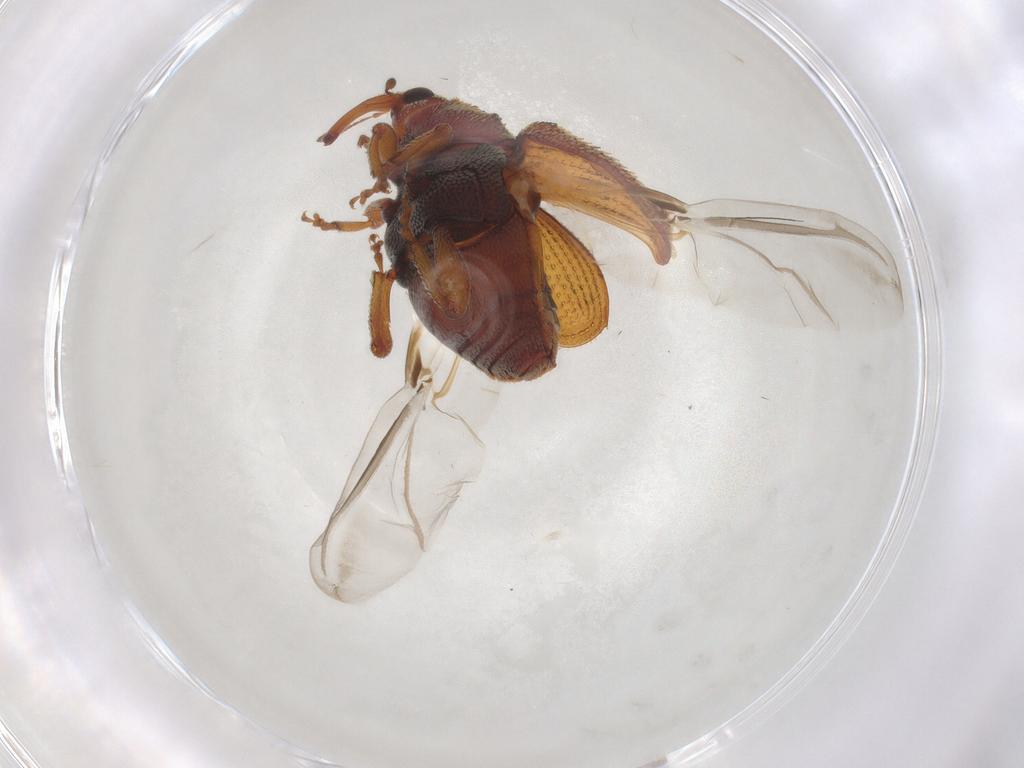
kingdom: Animalia
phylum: Arthropoda
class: Insecta
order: Coleoptera
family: Curculionidae
